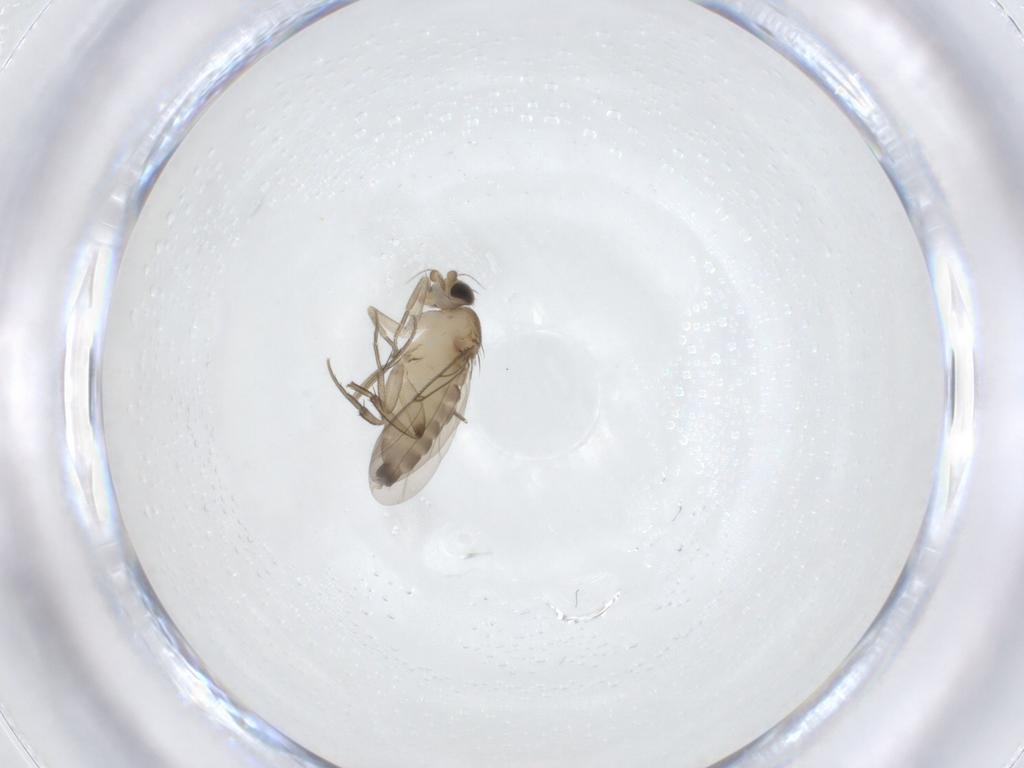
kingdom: Animalia
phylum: Arthropoda
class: Insecta
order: Diptera
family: Phoridae
